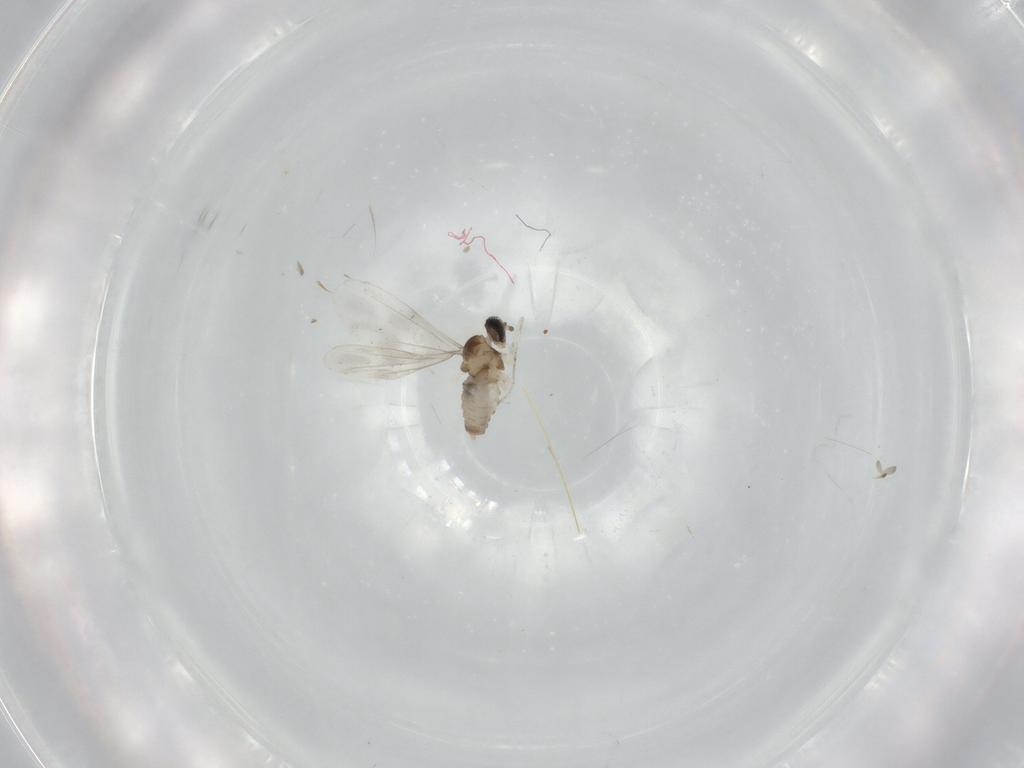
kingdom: Animalia
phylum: Arthropoda
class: Insecta
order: Diptera
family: Cecidomyiidae
